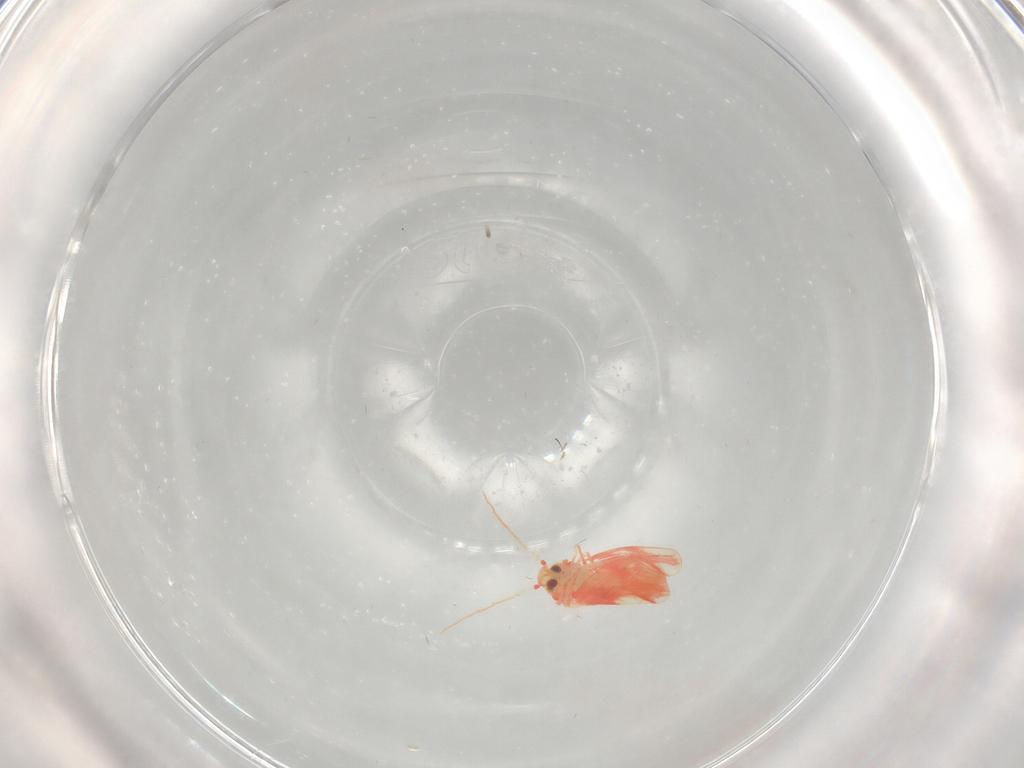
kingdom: Animalia
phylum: Arthropoda
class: Insecta
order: Hemiptera
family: Aleyrodidae
